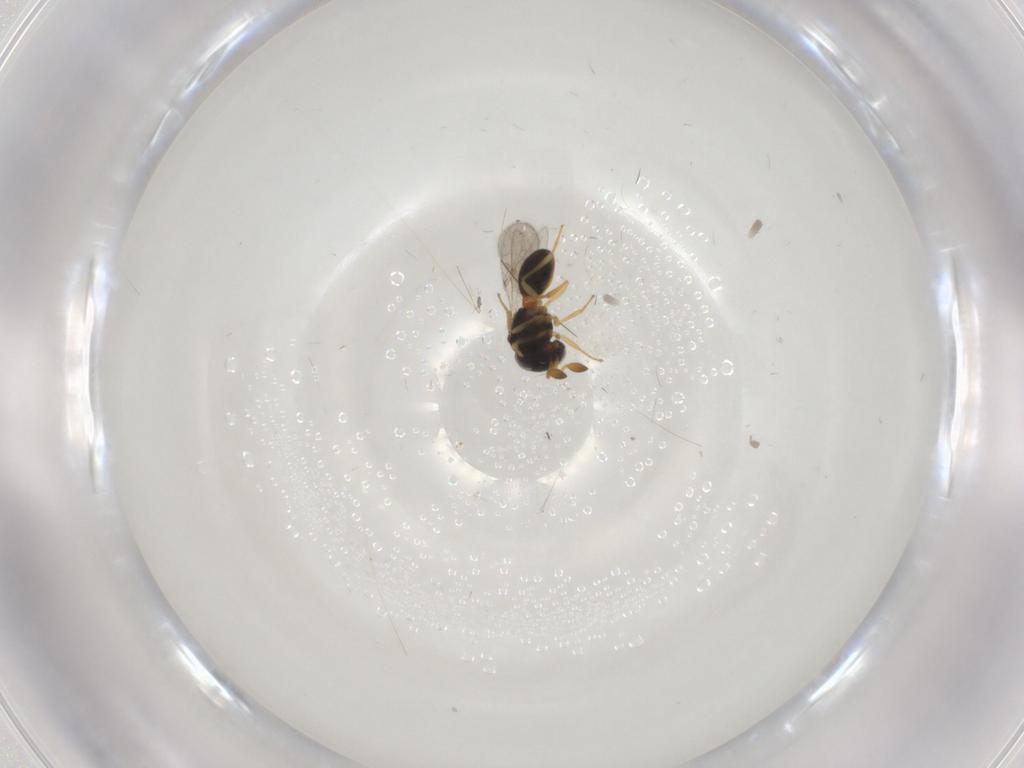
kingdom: Animalia
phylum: Arthropoda
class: Insecta
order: Hymenoptera
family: Scelionidae
